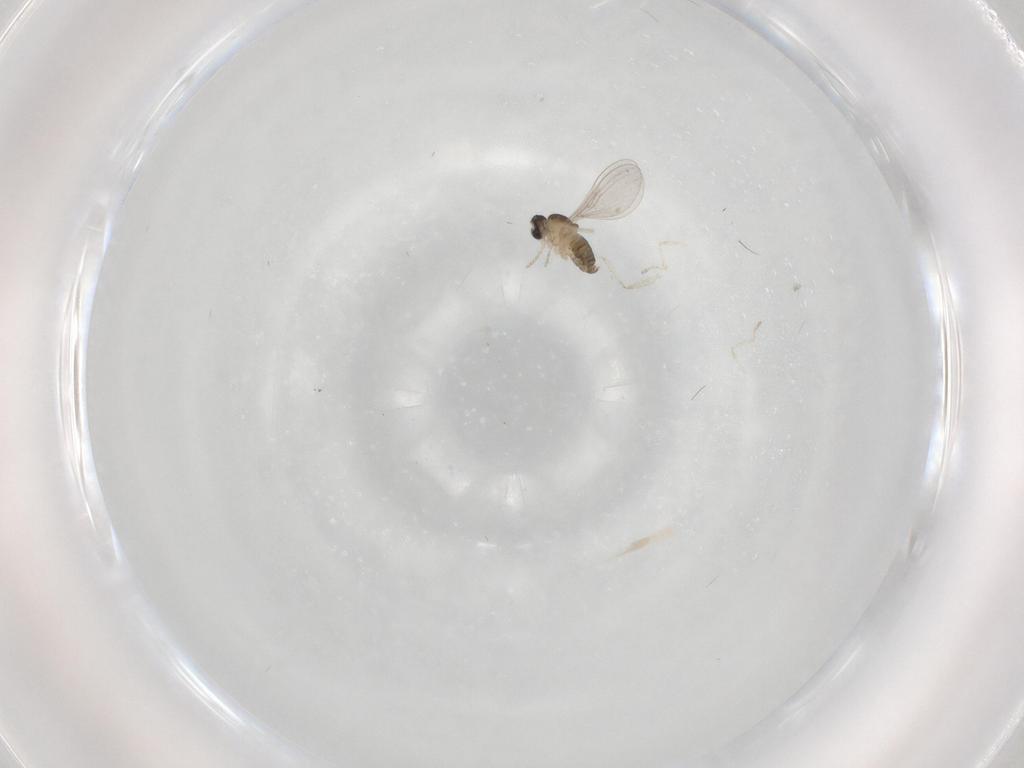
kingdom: Animalia
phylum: Arthropoda
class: Insecta
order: Diptera
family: Cecidomyiidae
